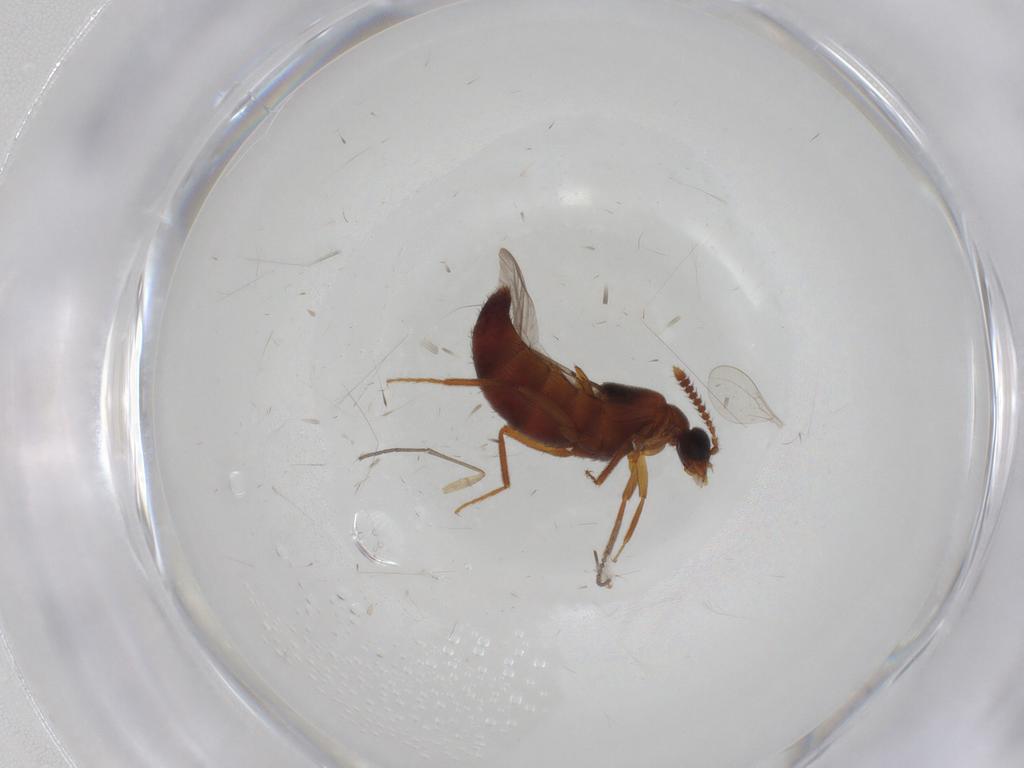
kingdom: Animalia
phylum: Arthropoda
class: Insecta
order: Coleoptera
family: Staphylinidae
